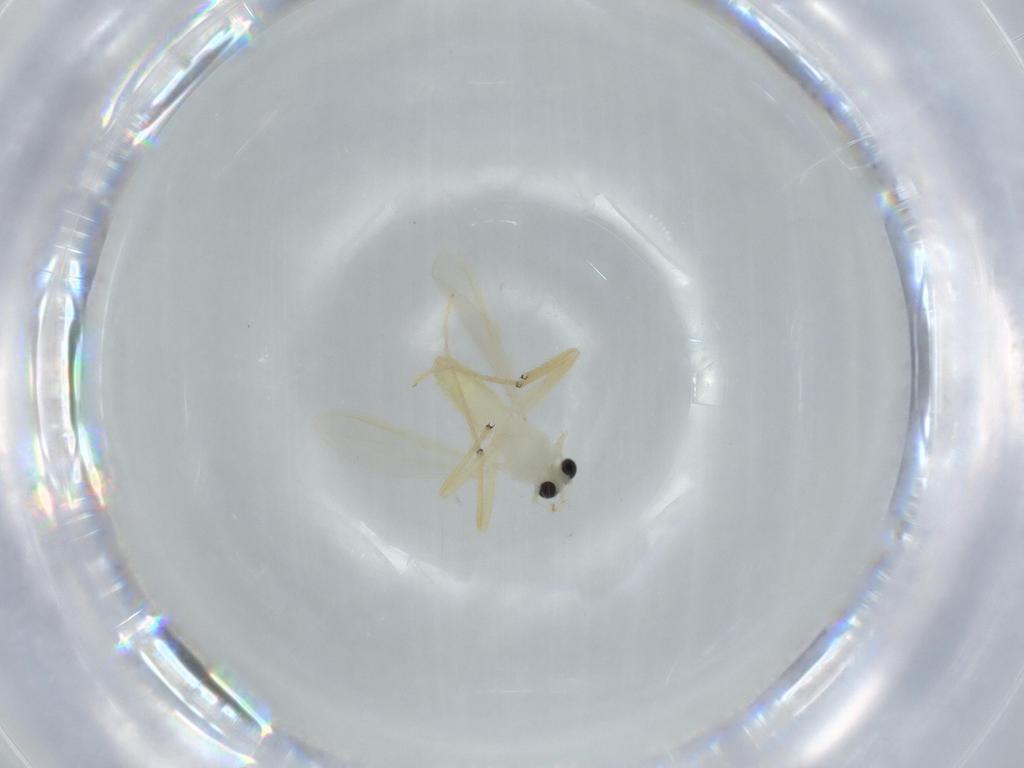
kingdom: Animalia
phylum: Arthropoda
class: Insecta
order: Diptera
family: Chironomidae
